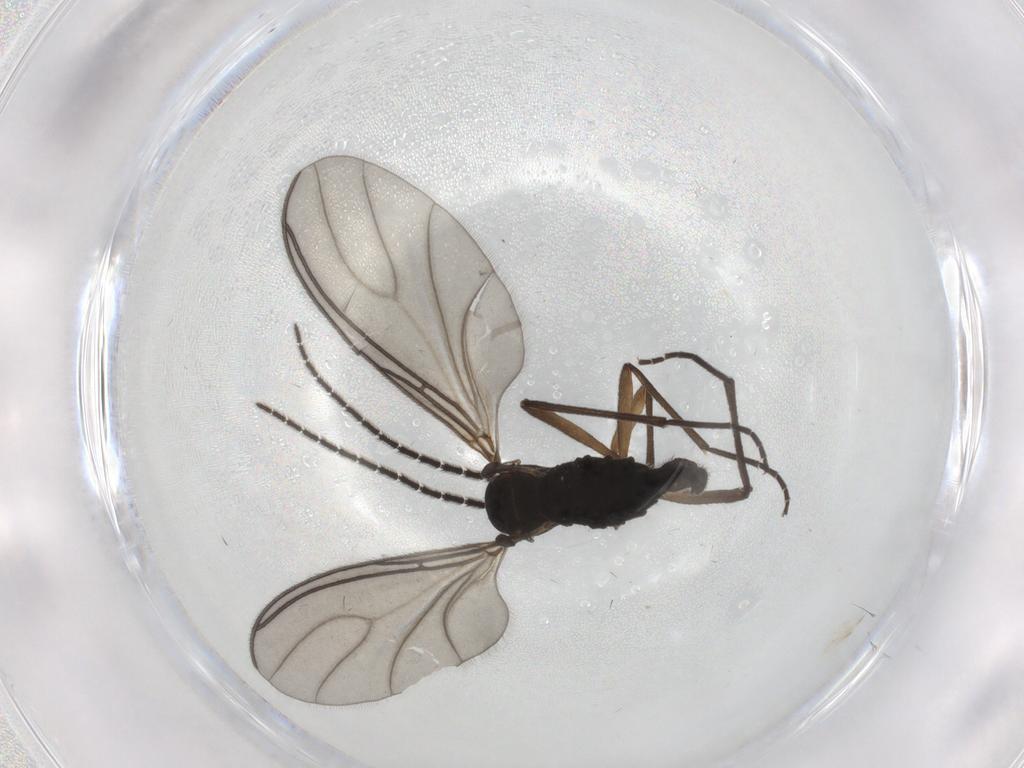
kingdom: Animalia
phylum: Arthropoda
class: Insecta
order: Diptera
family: Sciaridae
